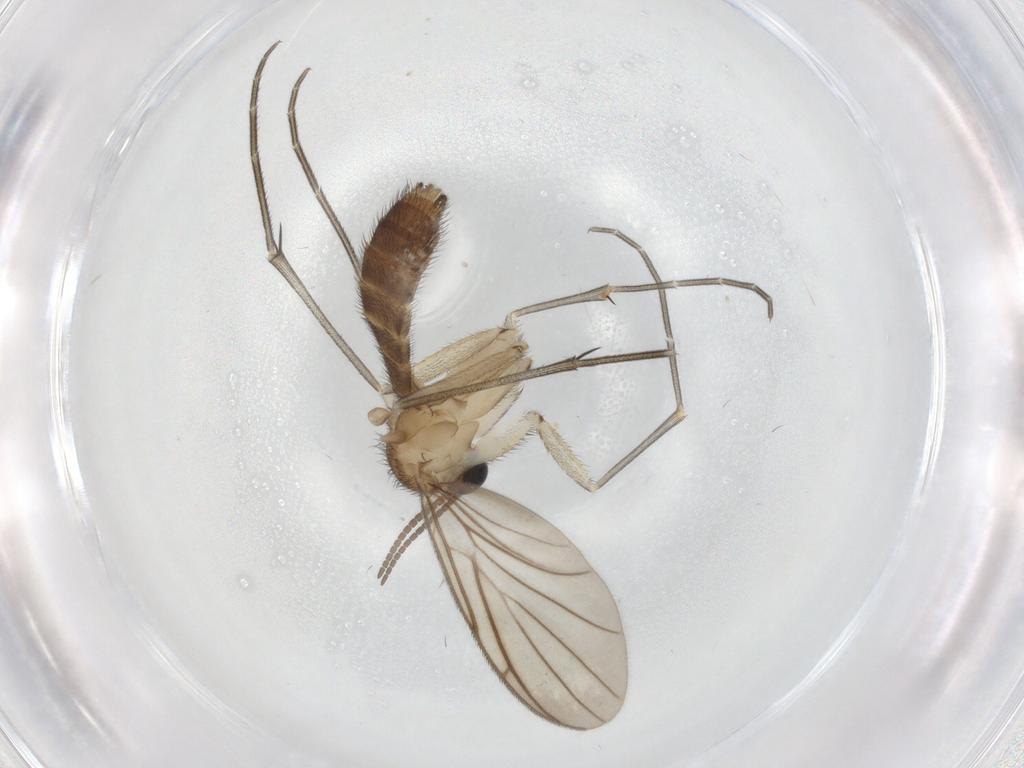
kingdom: Animalia
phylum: Arthropoda
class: Insecta
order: Diptera
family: Keroplatidae
